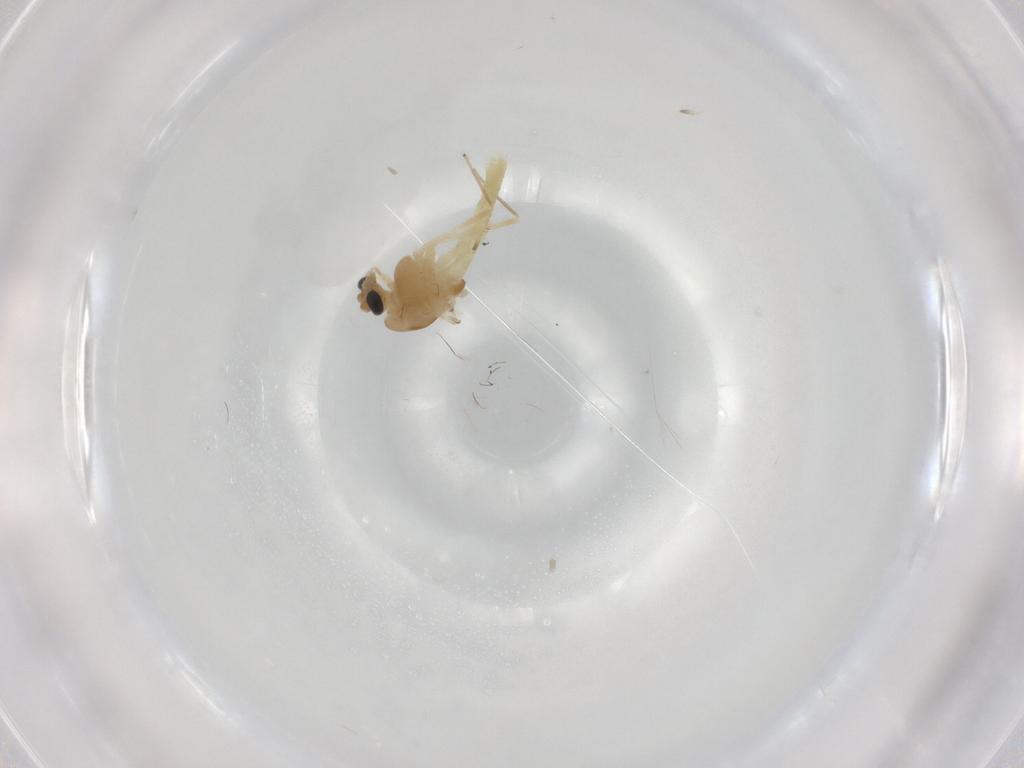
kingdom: Animalia
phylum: Arthropoda
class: Insecta
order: Diptera
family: Chironomidae
